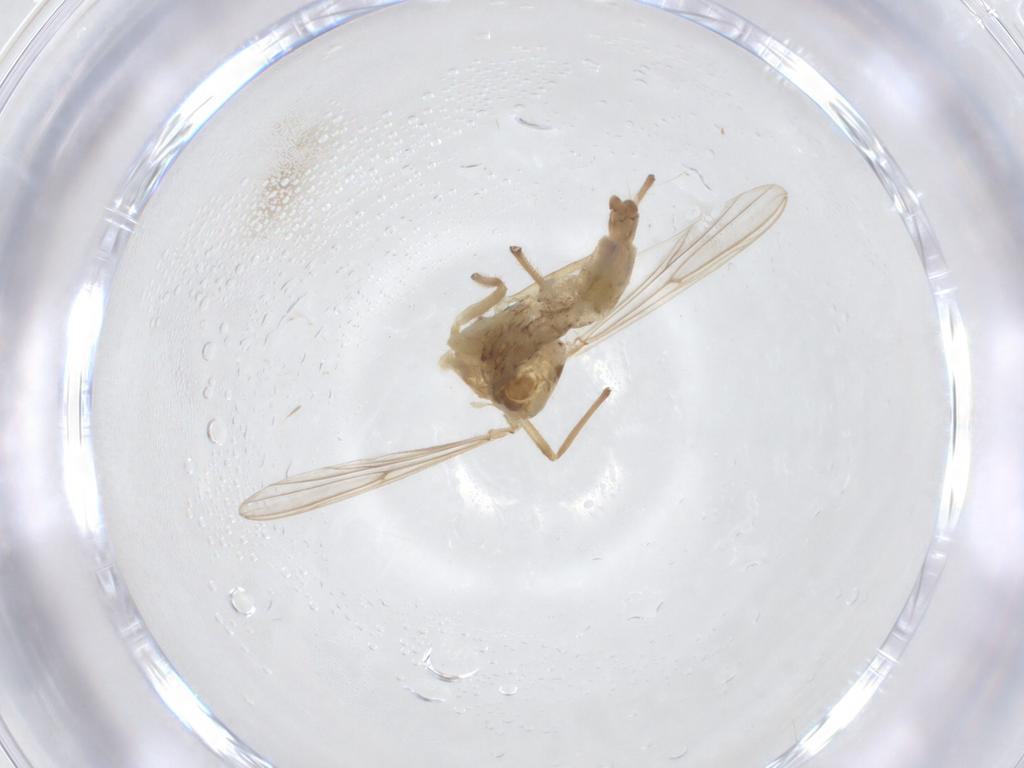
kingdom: Animalia
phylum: Arthropoda
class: Insecta
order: Diptera
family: Chironomidae
